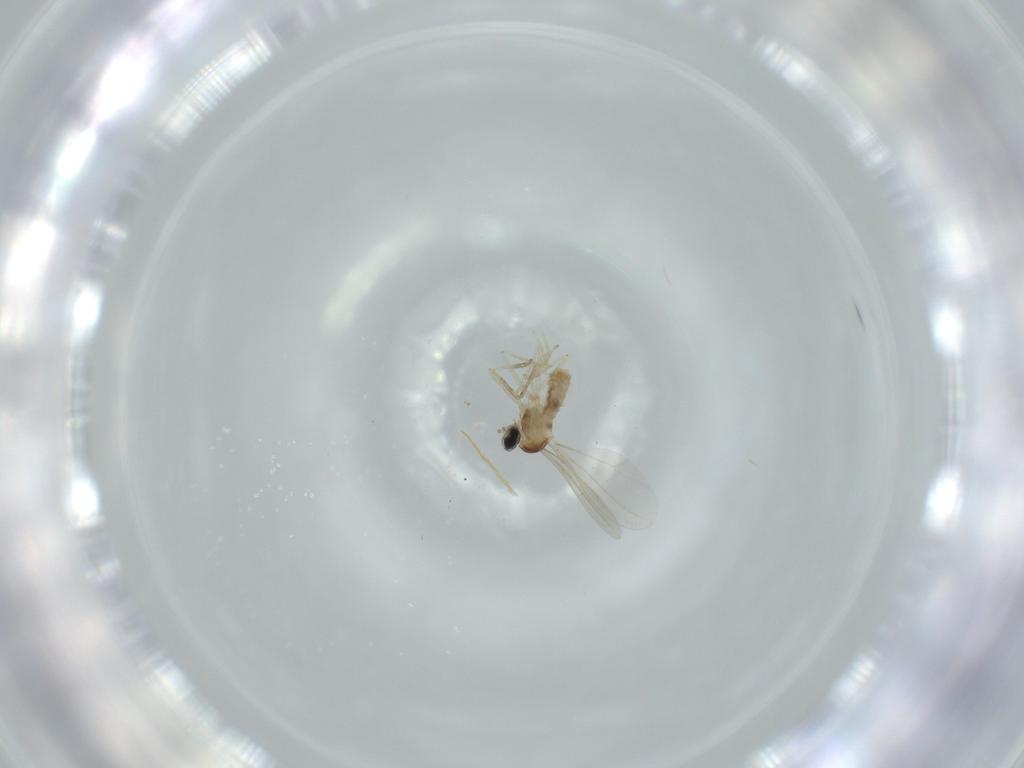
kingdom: Animalia
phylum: Arthropoda
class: Insecta
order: Diptera
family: Cecidomyiidae
